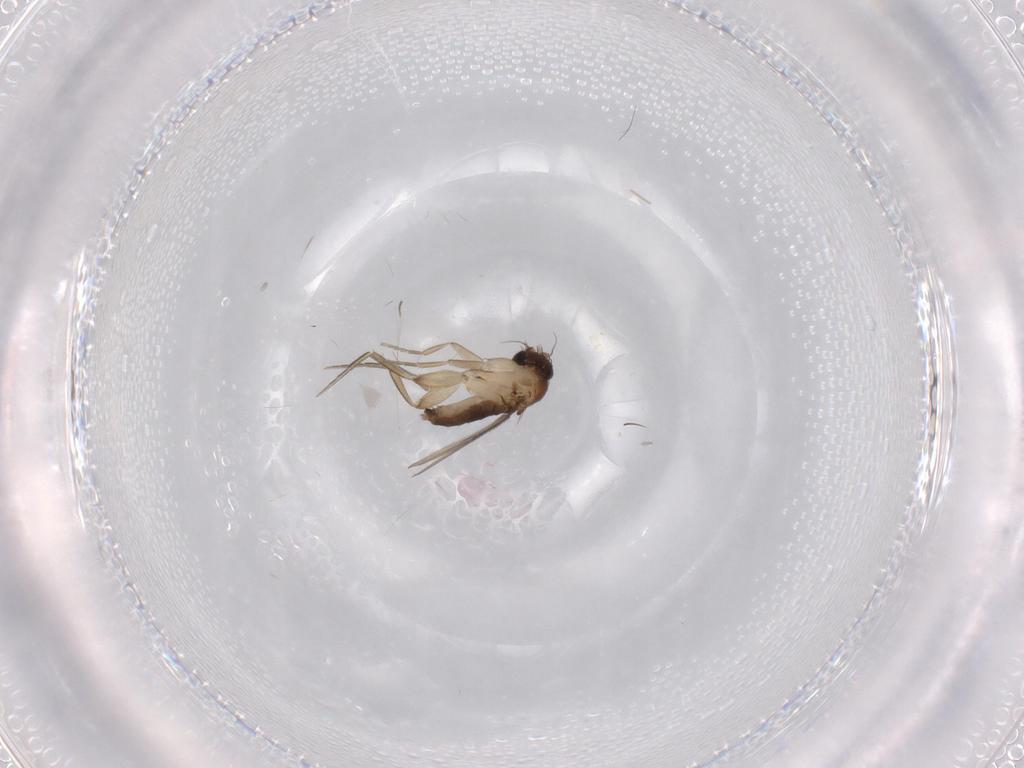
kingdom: Animalia
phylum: Arthropoda
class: Insecta
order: Diptera
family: Phoridae
